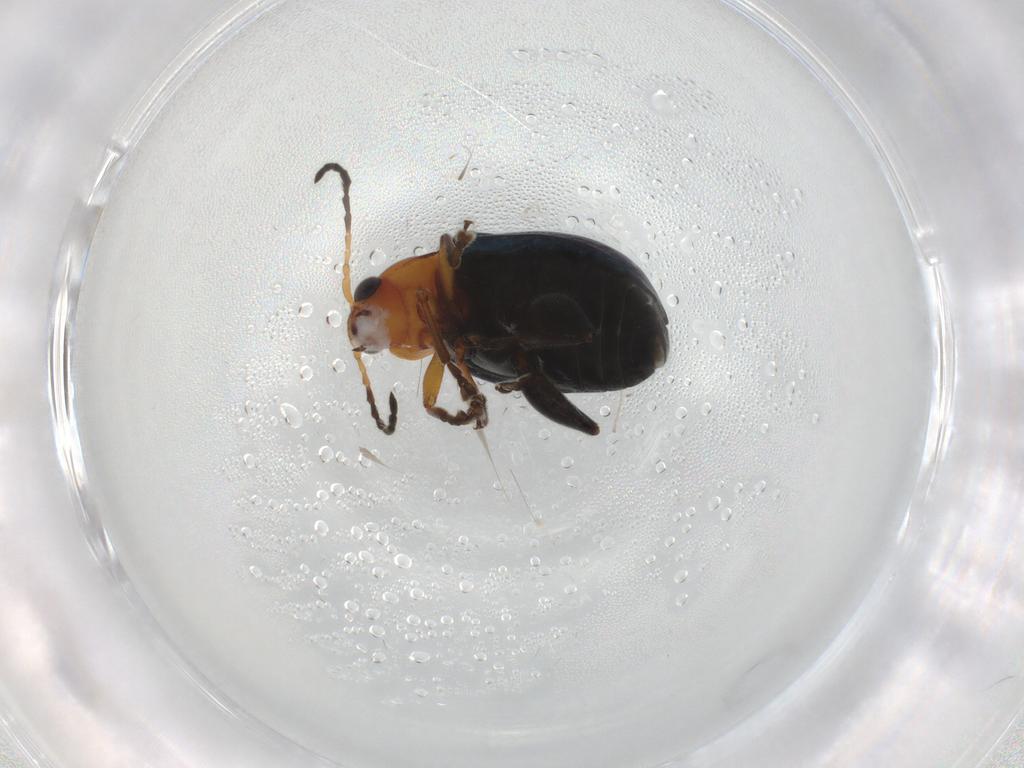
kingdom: Animalia
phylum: Arthropoda
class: Insecta
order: Coleoptera
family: Chrysomelidae
